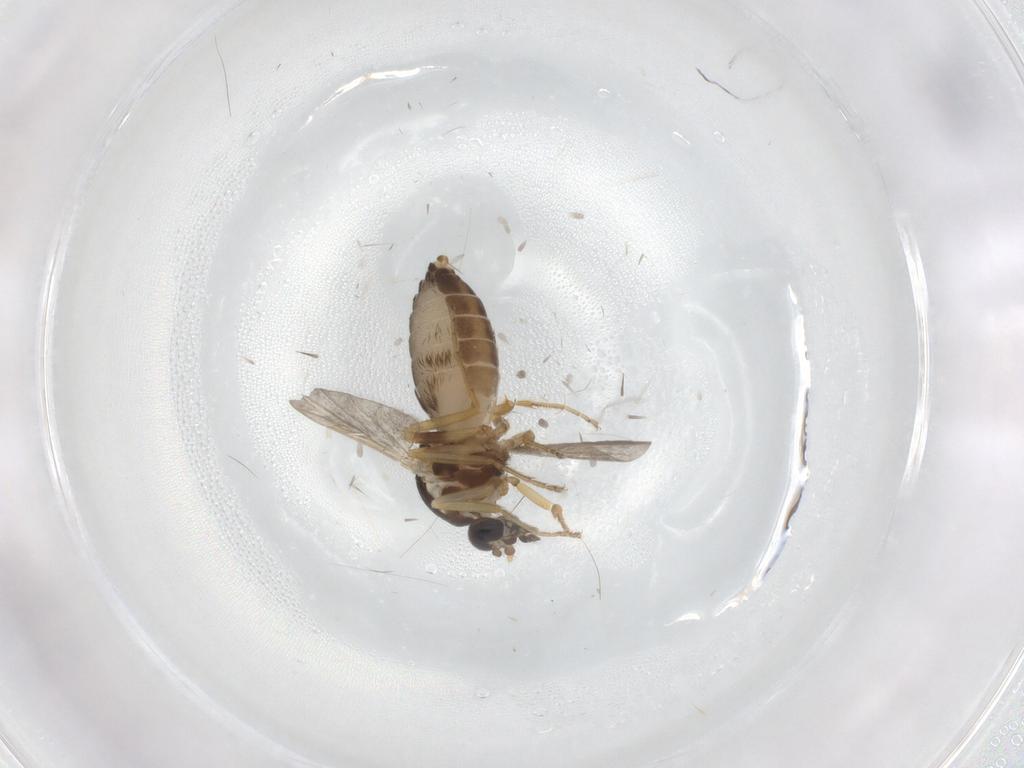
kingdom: Animalia
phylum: Arthropoda
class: Insecta
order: Diptera
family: Ceratopogonidae
